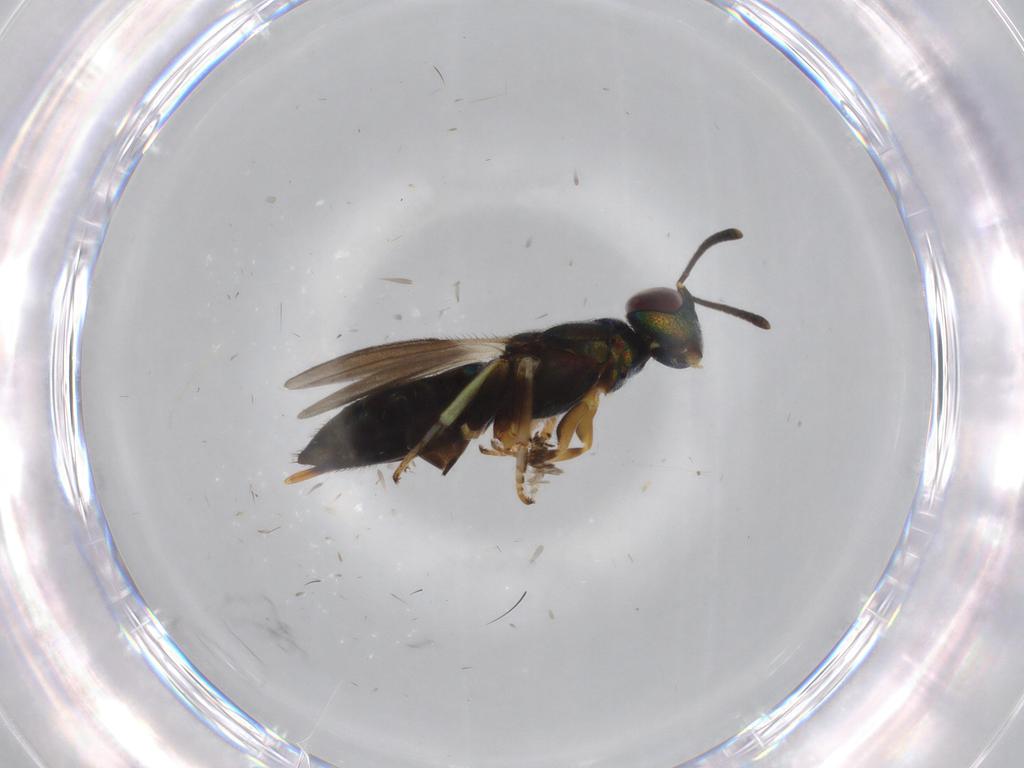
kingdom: Animalia
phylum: Arthropoda
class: Insecta
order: Hymenoptera
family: Eupelmidae
